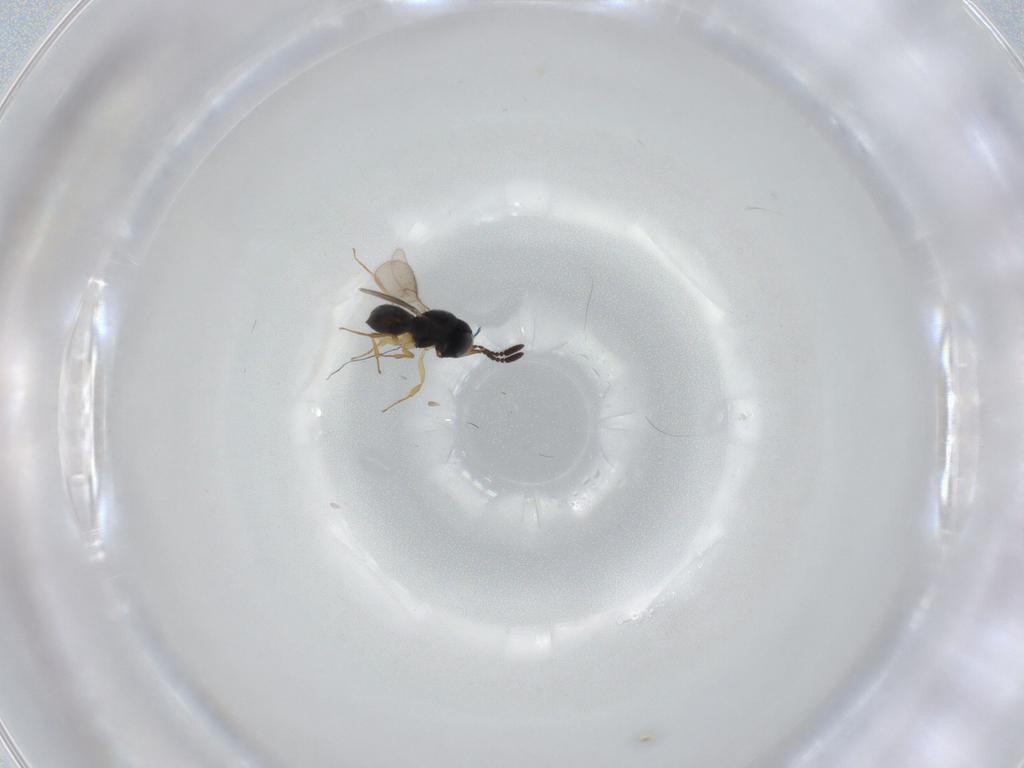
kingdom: Animalia
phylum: Arthropoda
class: Insecta
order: Hymenoptera
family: Scelionidae
